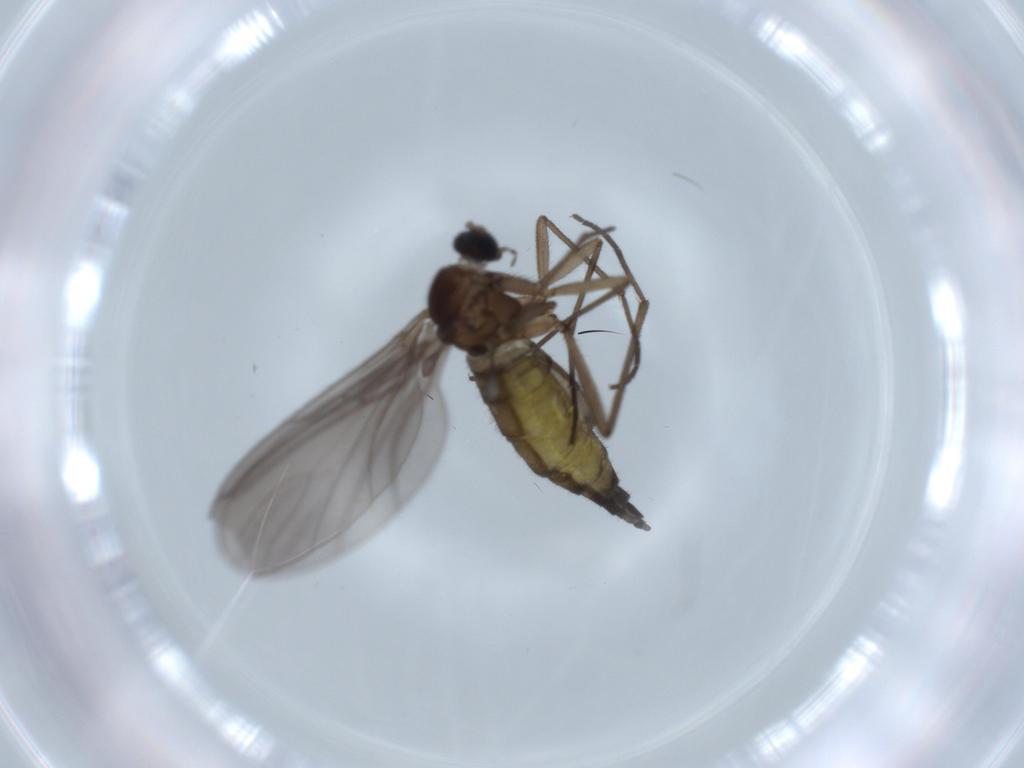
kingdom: Animalia
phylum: Arthropoda
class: Insecta
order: Diptera
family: Sciaridae
